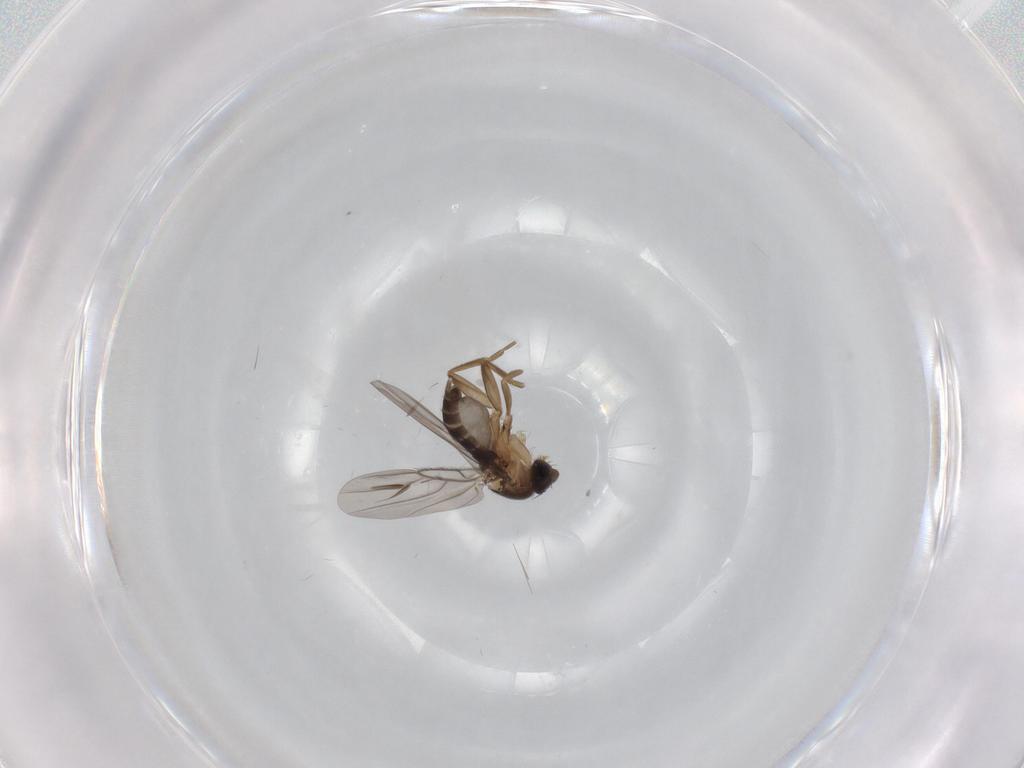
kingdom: Animalia
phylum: Arthropoda
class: Insecta
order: Diptera
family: Phoridae
